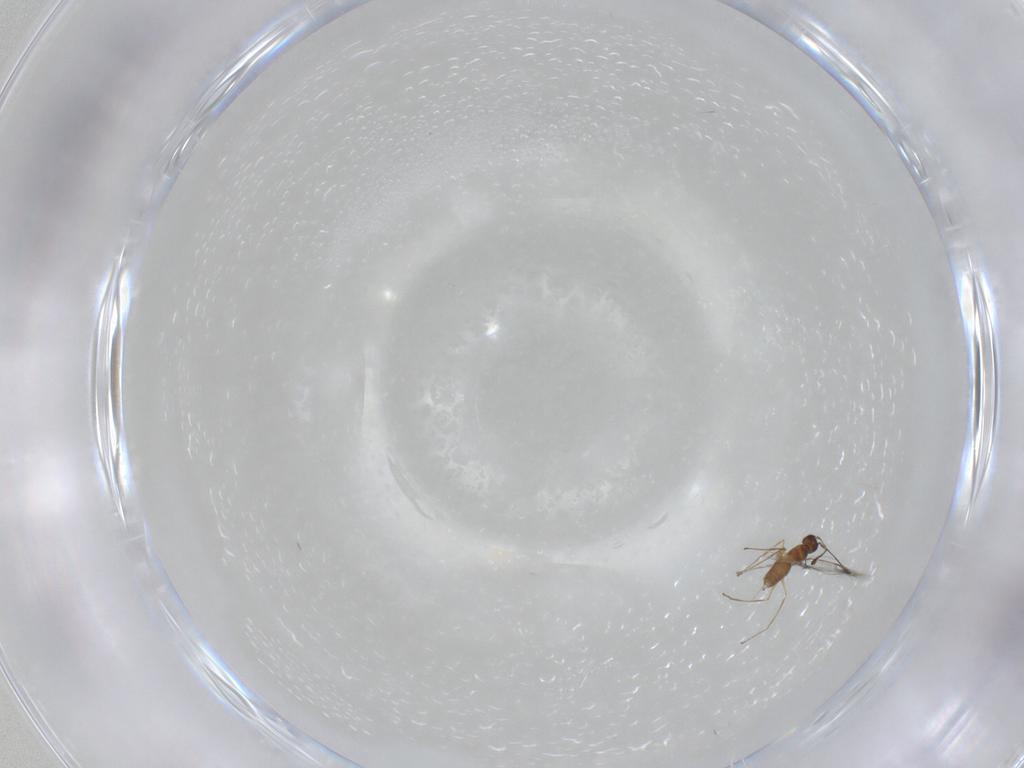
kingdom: Animalia
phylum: Arthropoda
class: Insecta
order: Hymenoptera
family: Mymaridae
